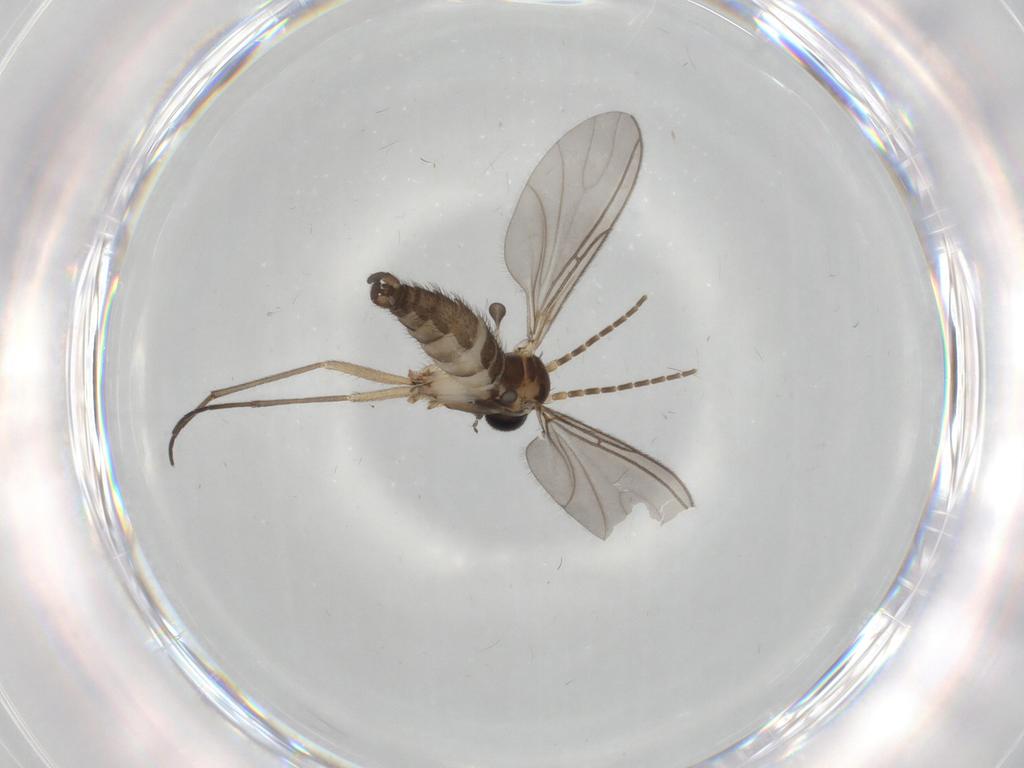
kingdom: Animalia
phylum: Arthropoda
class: Insecta
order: Diptera
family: Sciaridae
